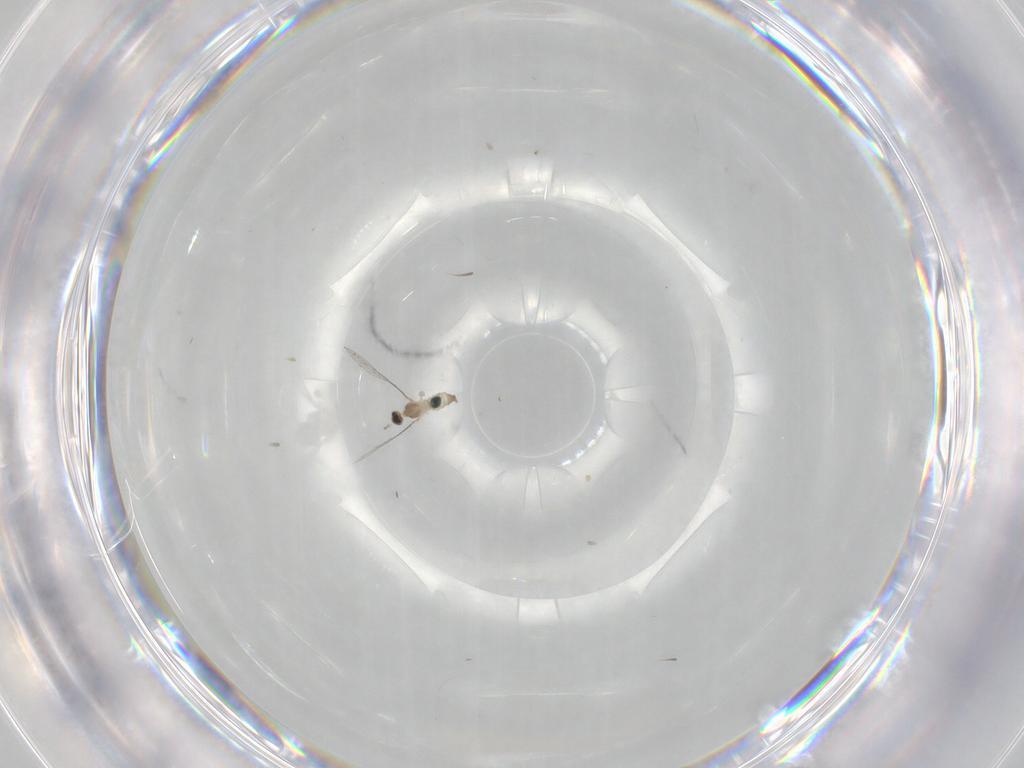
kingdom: Animalia
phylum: Arthropoda
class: Insecta
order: Diptera
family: Cecidomyiidae
